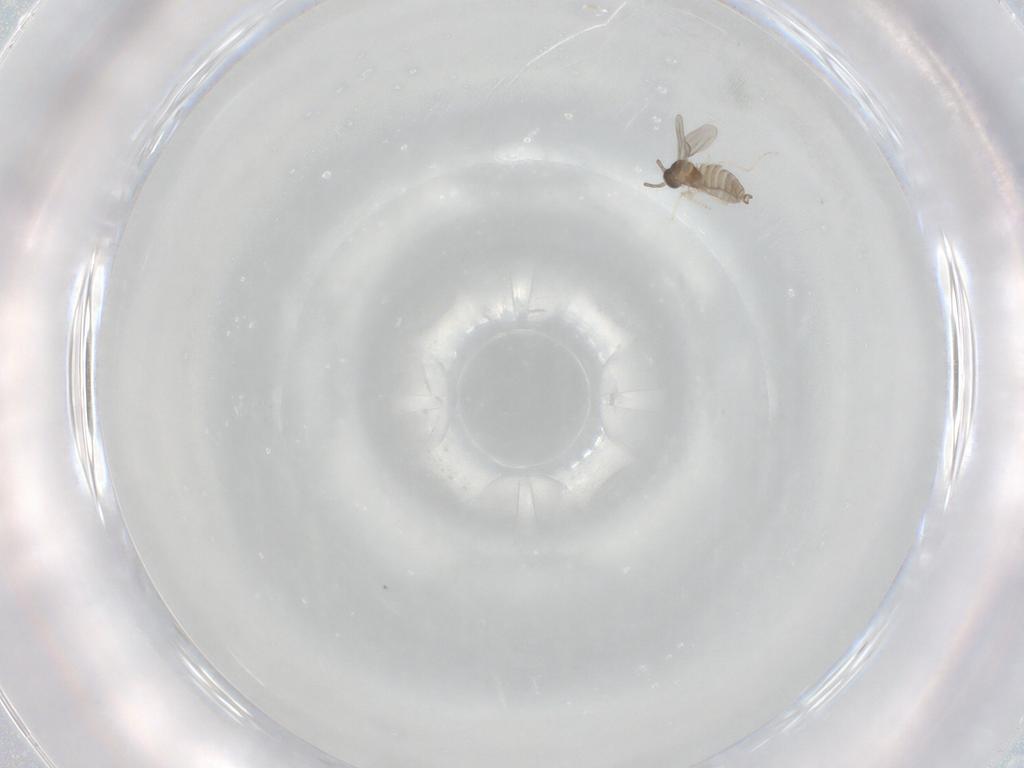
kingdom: Animalia
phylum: Arthropoda
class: Insecta
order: Diptera
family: Cecidomyiidae
